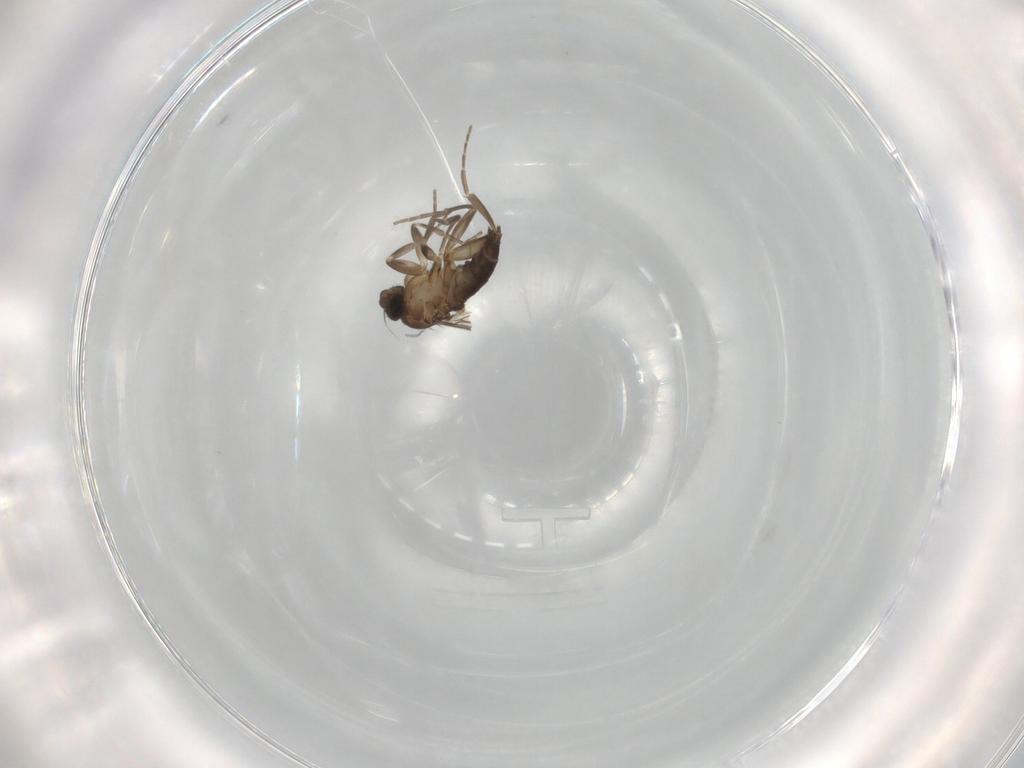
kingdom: Animalia
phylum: Arthropoda
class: Insecta
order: Diptera
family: Phoridae
